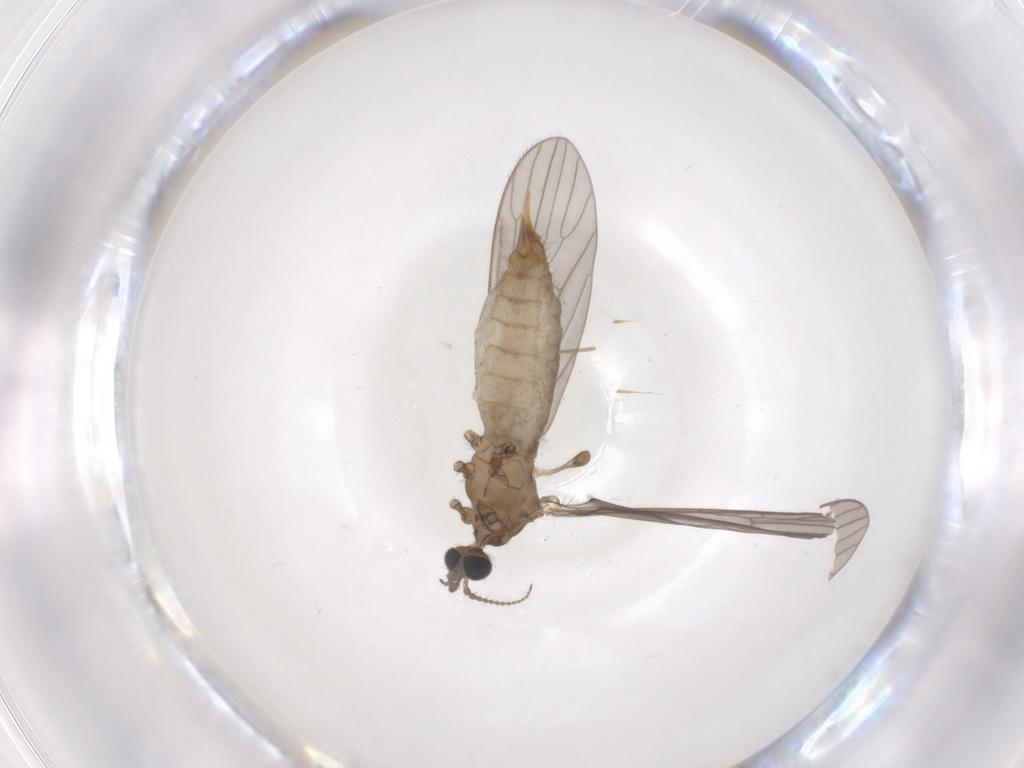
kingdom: Animalia
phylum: Arthropoda
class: Insecta
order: Diptera
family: Limoniidae
